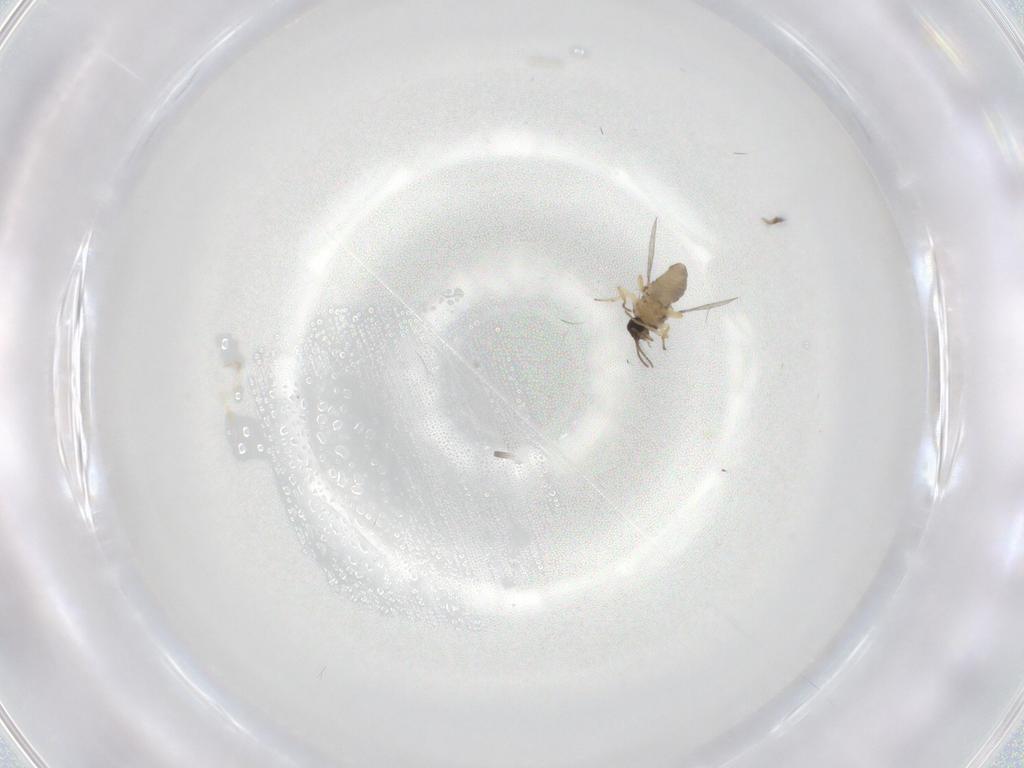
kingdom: Animalia
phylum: Arthropoda
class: Insecta
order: Diptera
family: Ceratopogonidae
